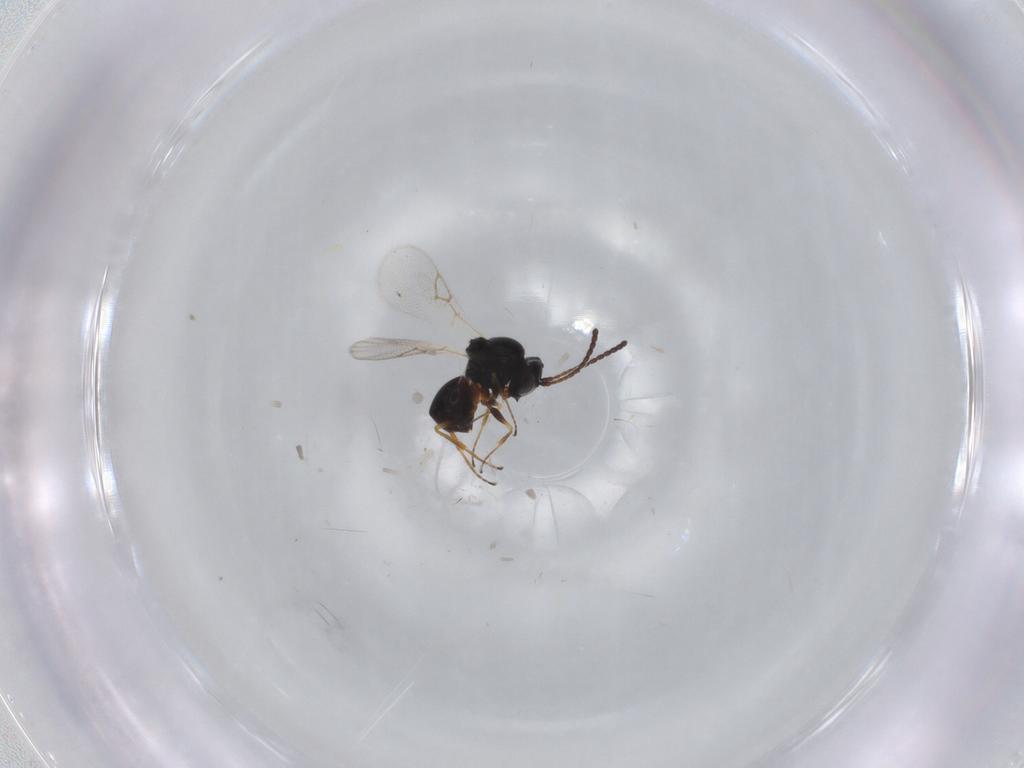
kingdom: Animalia
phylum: Arthropoda
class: Insecta
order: Hymenoptera
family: Figitidae
